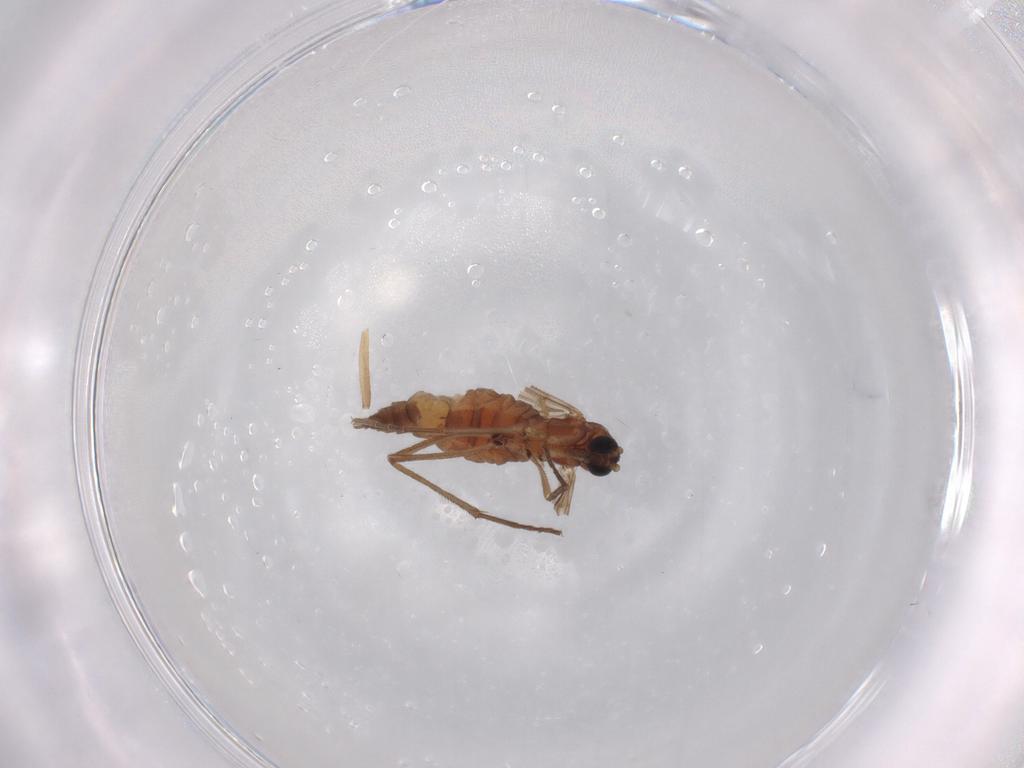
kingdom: Animalia
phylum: Arthropoda
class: Insecta
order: Diptera
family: Sciaridae
